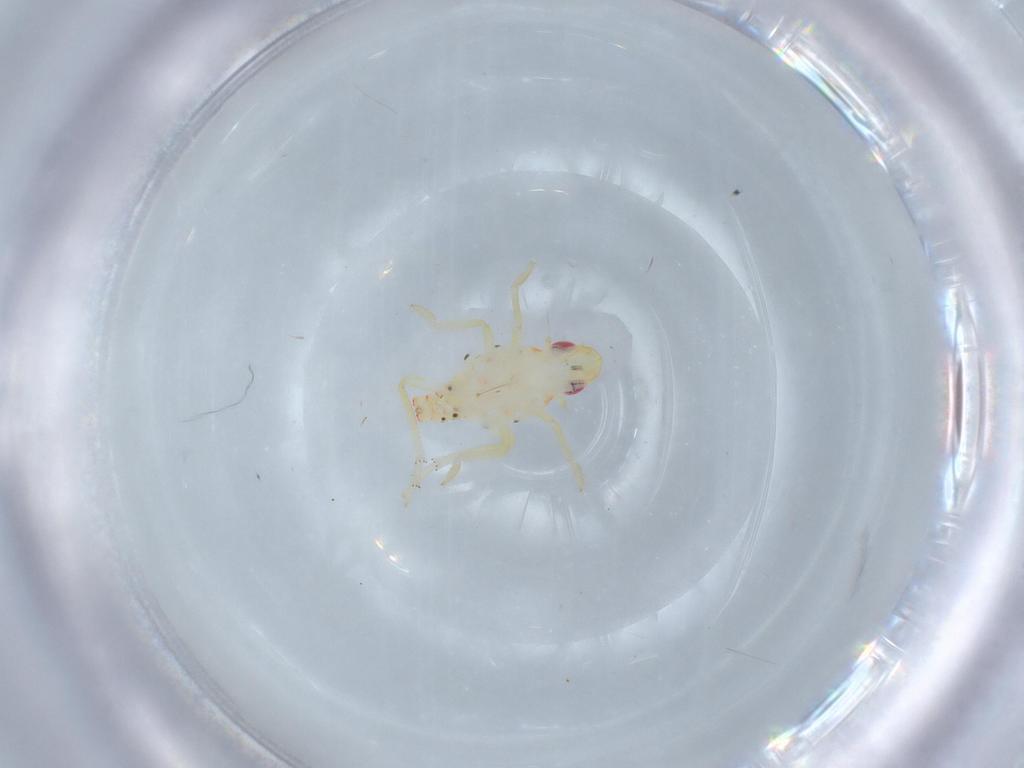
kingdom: Animalia
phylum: Arthropoda
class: Insecta
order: Hemiptera
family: Tropiduchidae
